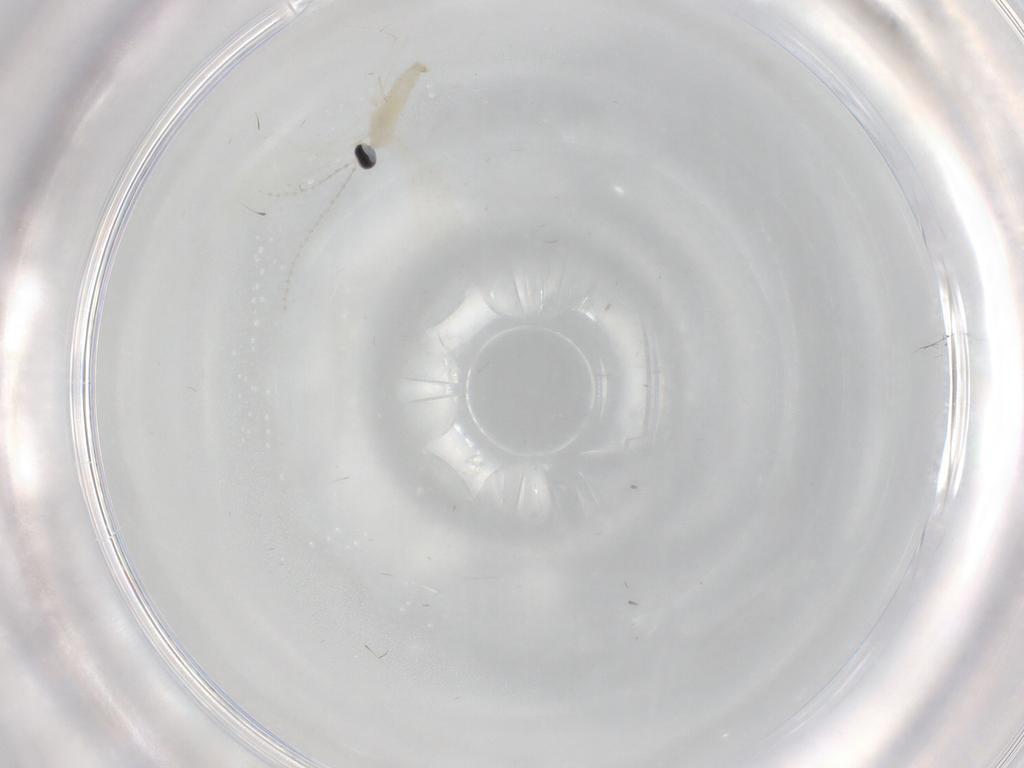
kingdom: Animalia
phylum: Arthropoda
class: Insecta
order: Diptera
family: Cecidomyiidae
